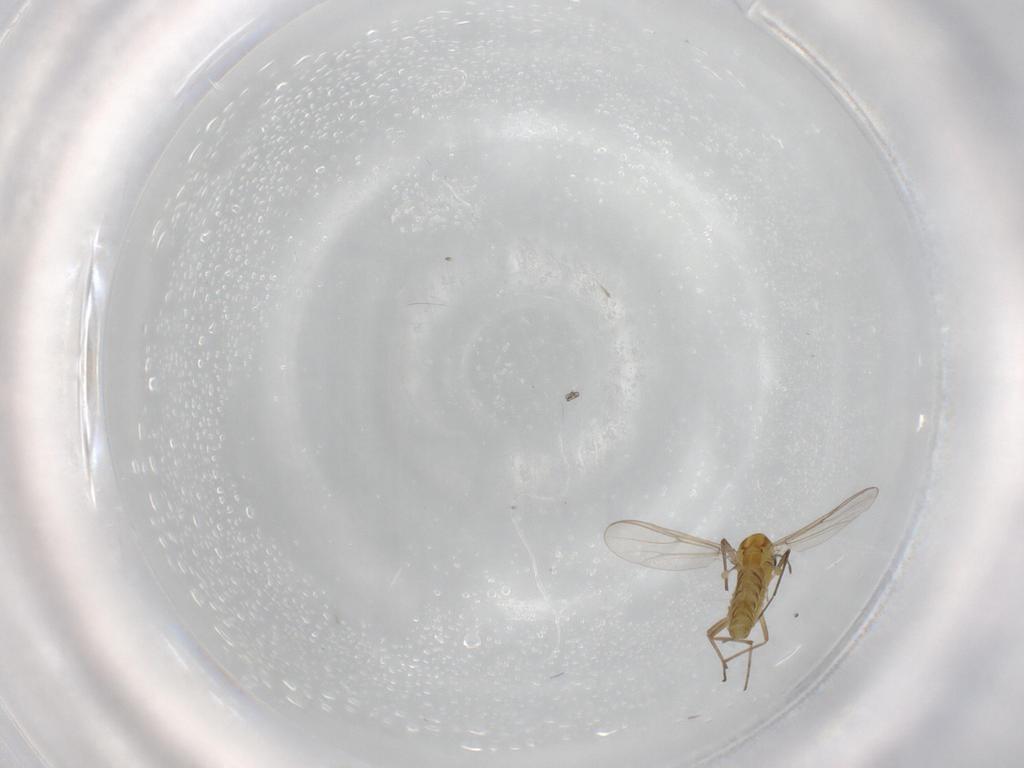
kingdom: Animalia
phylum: Arthropoda
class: Insecta
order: Diptera
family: Chironomidae
